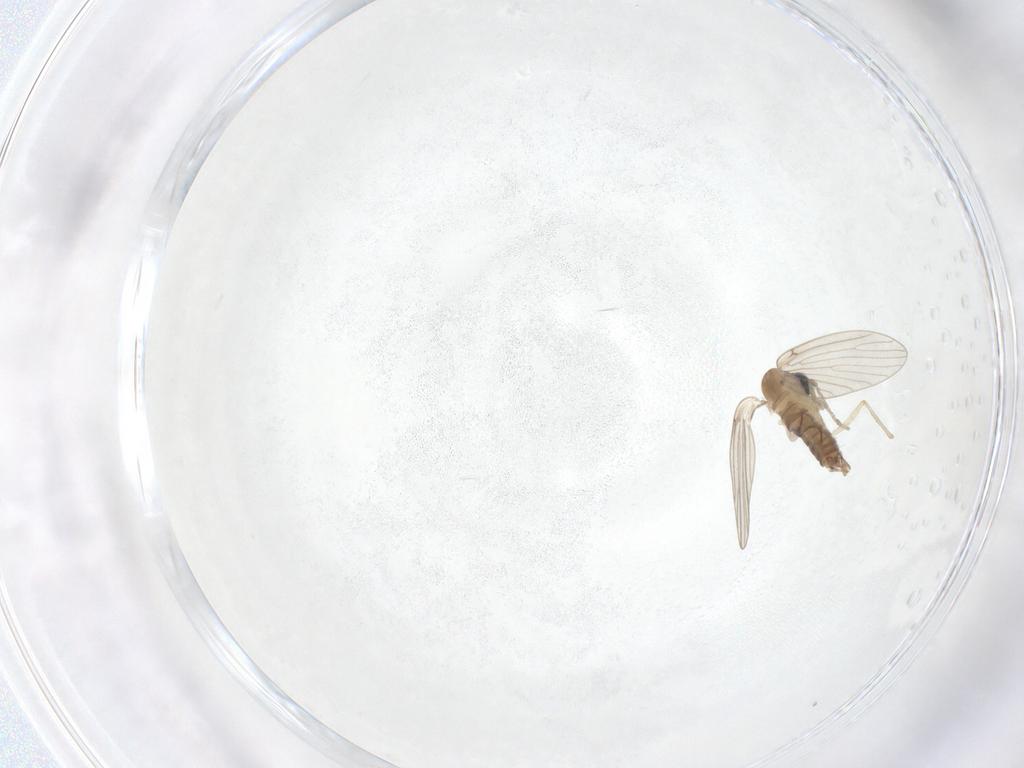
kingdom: Animalia
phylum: Arthropoda
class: Insecta
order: Diptera
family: Psychodidae
